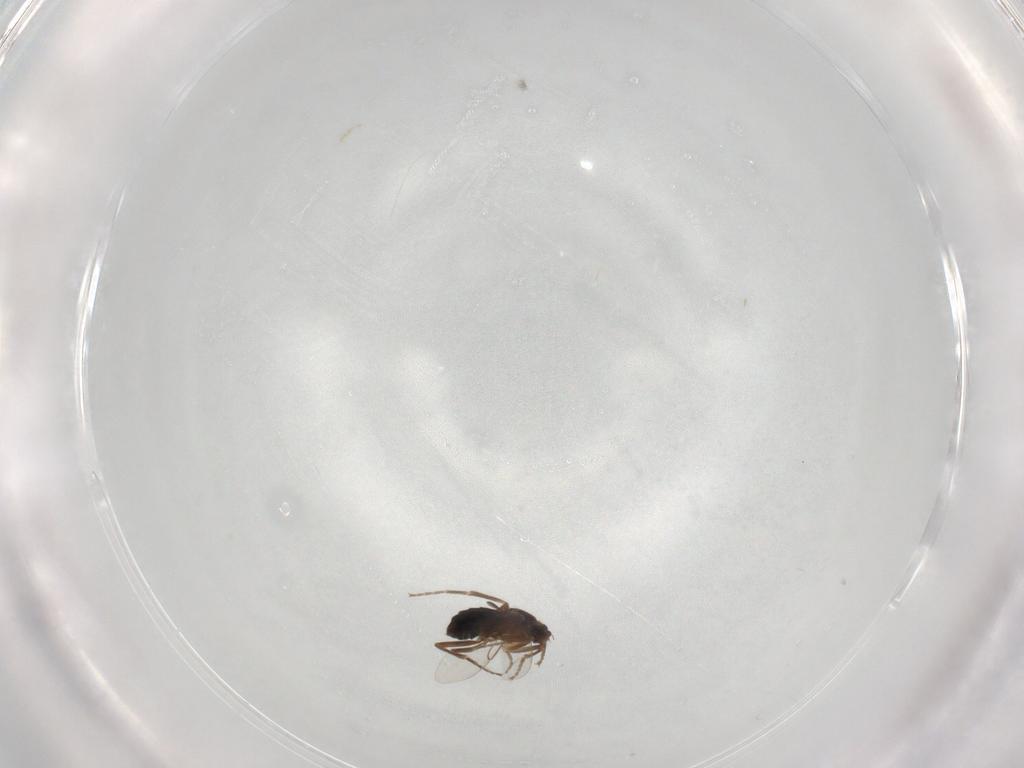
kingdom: Animalia
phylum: Arthropoda
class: Insecta
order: Diptera
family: Phoridae
